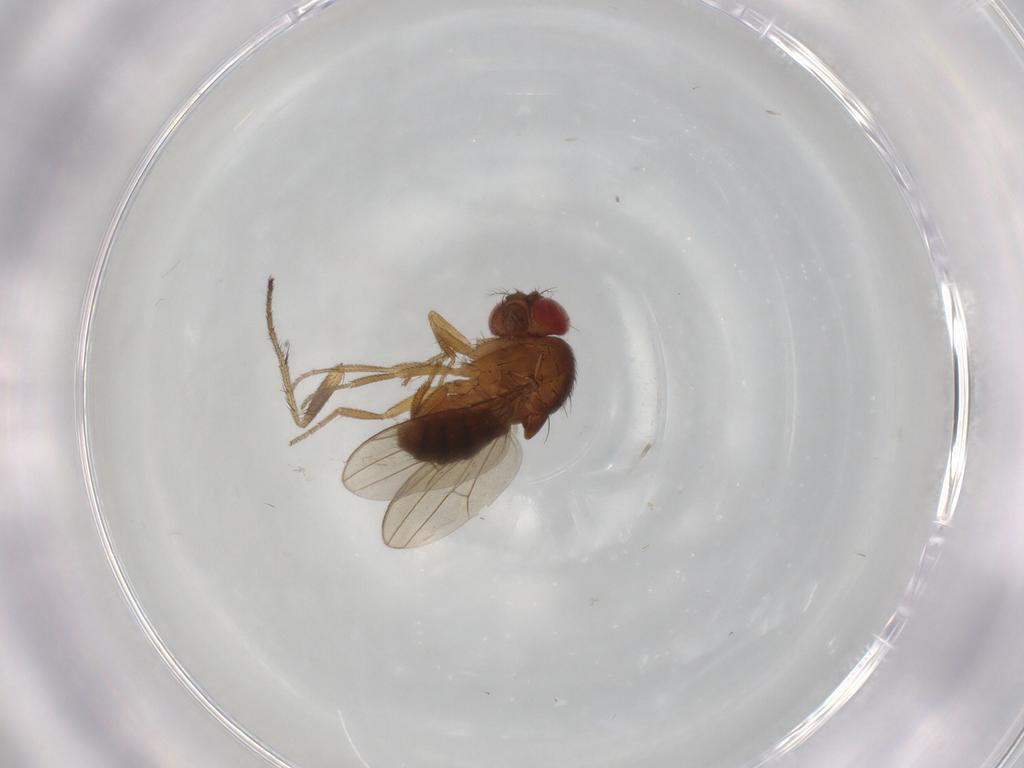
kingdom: Animalia
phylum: Arthropoda
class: Insecta
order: Diptera
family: Drosophilidae
